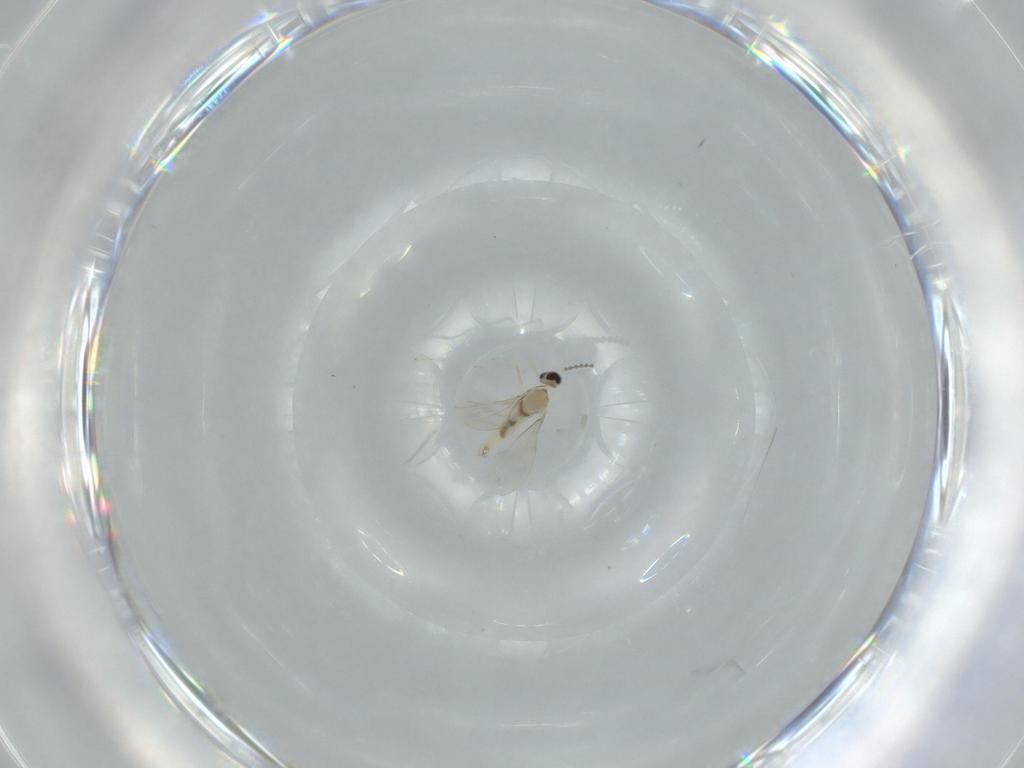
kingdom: Animalia
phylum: Arthropoda
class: Insecta
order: Diptera
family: Cecidomyiidae
